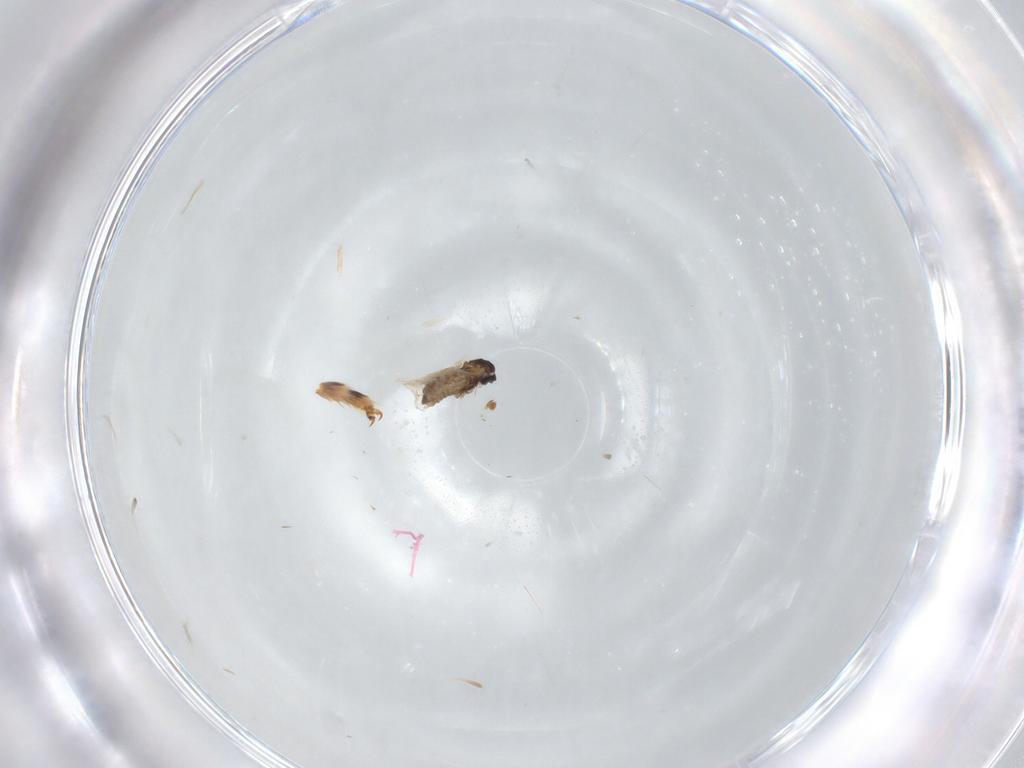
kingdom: Animalia
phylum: Arthropoda
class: Insecta
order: Diptera
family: Cecidomyiidae
